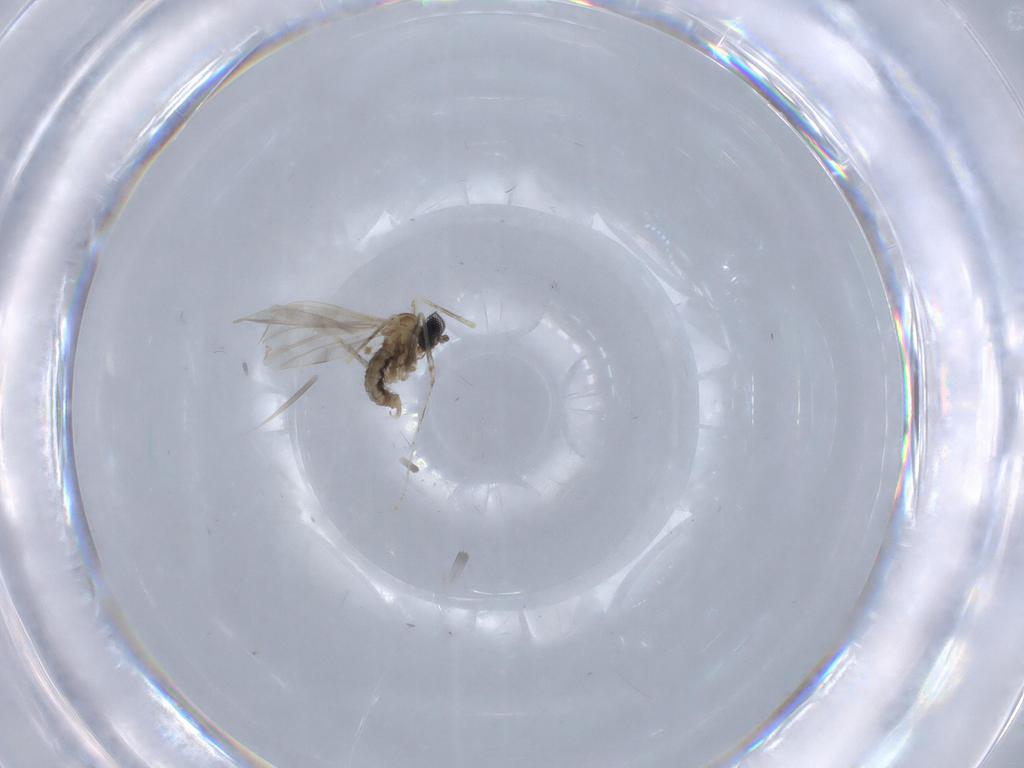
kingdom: Animalia
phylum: Arthropoda
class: Insecta
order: Diptera
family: Cecidomyiidae
